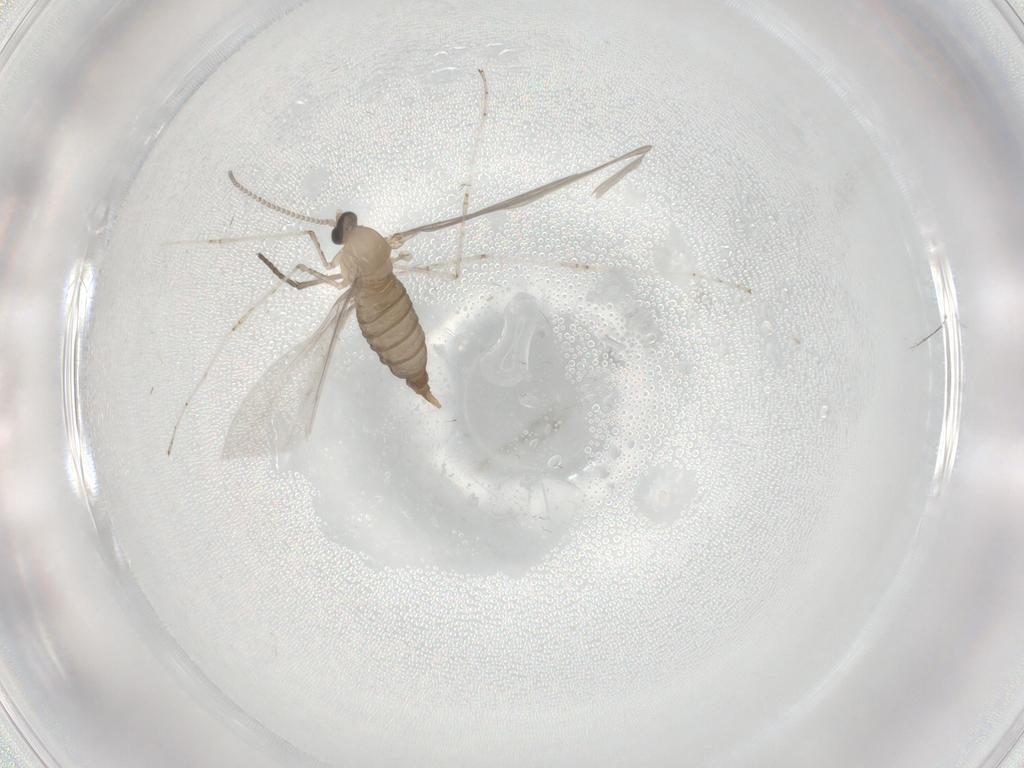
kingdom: Animalia
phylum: Arthropoda
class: Insecta
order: Diptera
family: Cecidomyiidae
